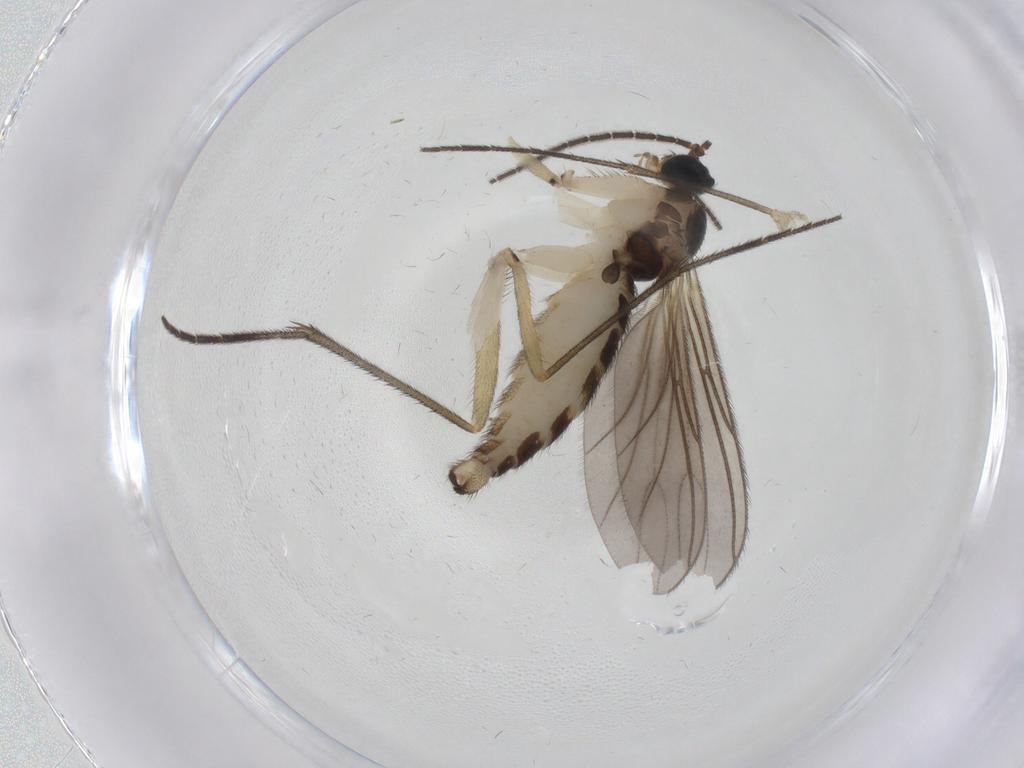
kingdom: Animalia
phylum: Arthropoda
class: Insecta
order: Diptera
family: Sciaridae
